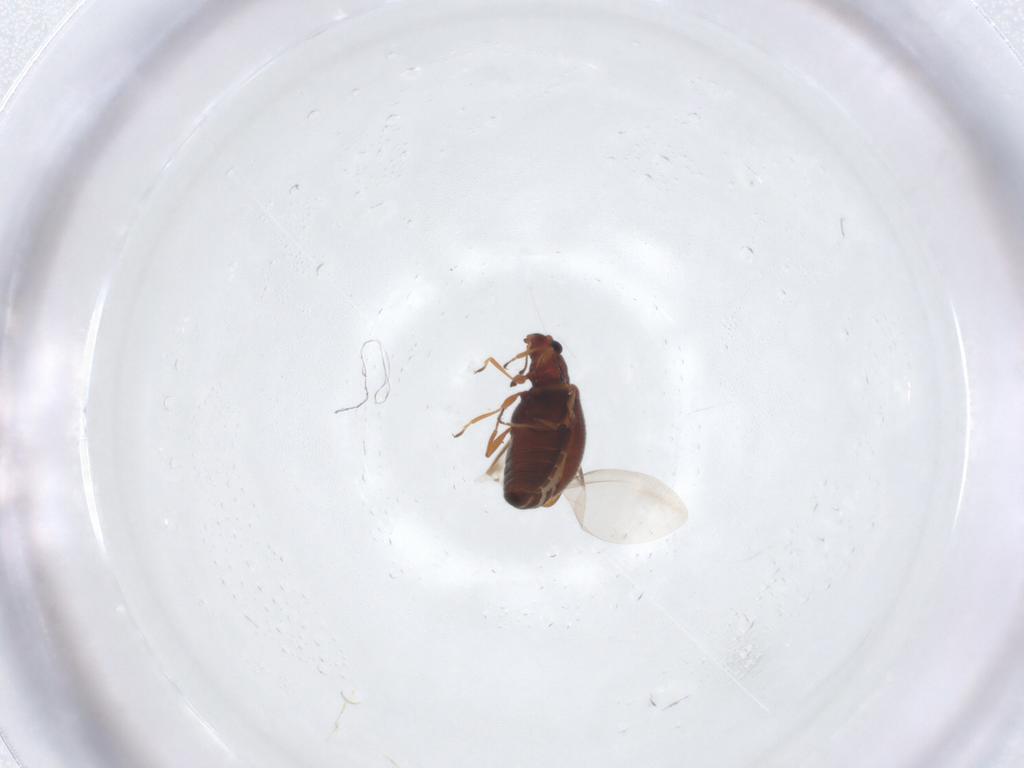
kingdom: Animalia
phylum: Arthropoda
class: Insecta
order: Coleoptera
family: Latridiidae
